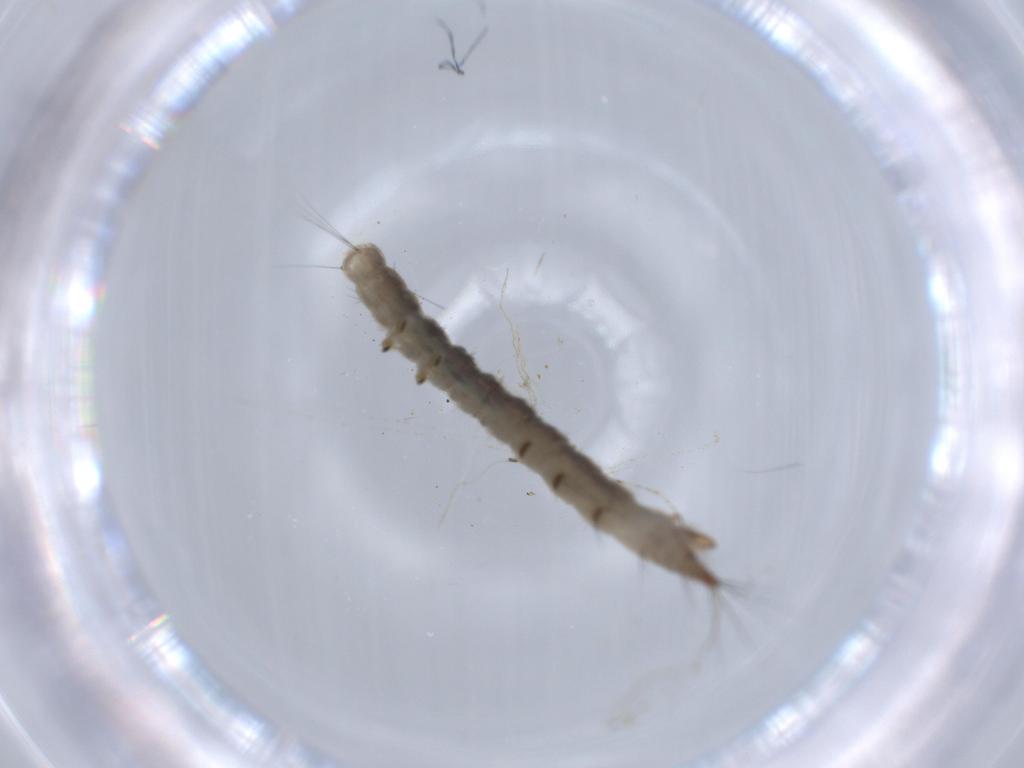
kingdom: Animalia
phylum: Arthropoda
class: Insecta
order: Diptera
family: Dixidae
